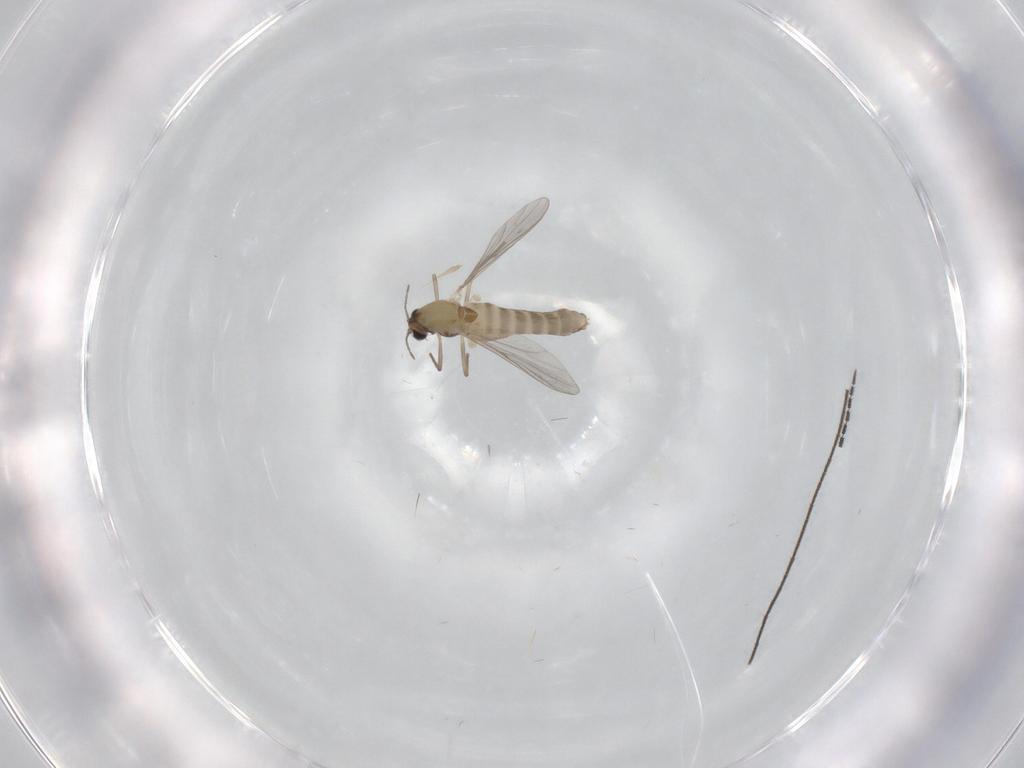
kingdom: Animalia
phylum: Arthropoda
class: Insecta
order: Diptera
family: Chironomidae
